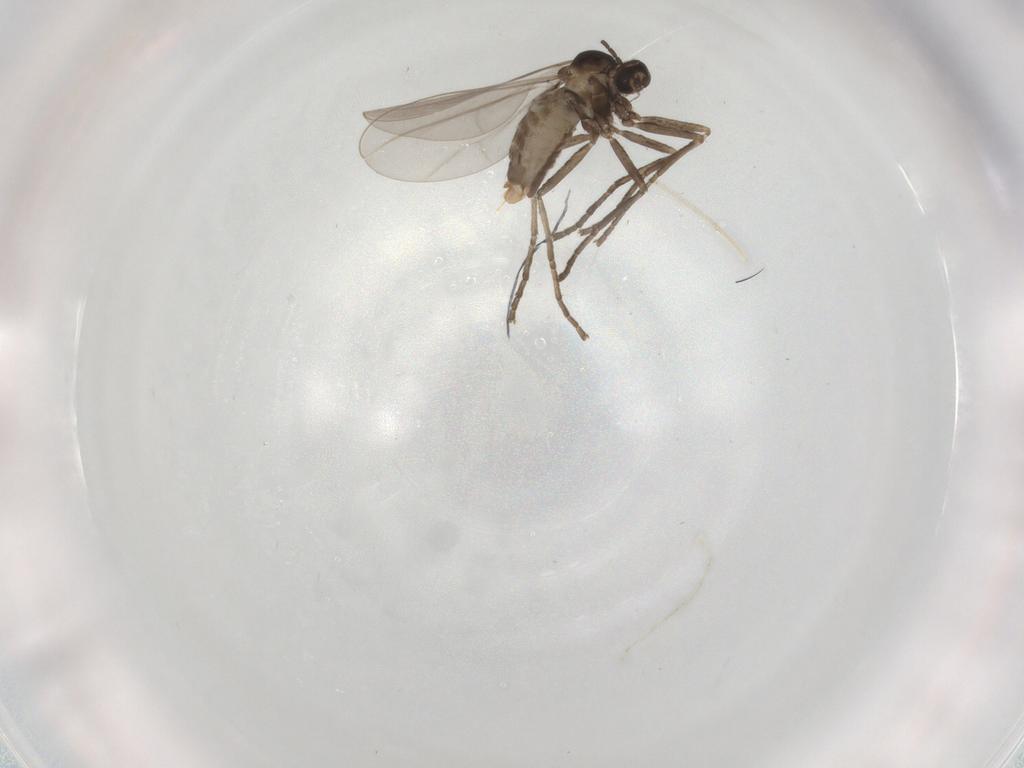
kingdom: Animalia
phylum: Arthropoda
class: Insecta
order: Diptera
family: Cecidomyiidae
